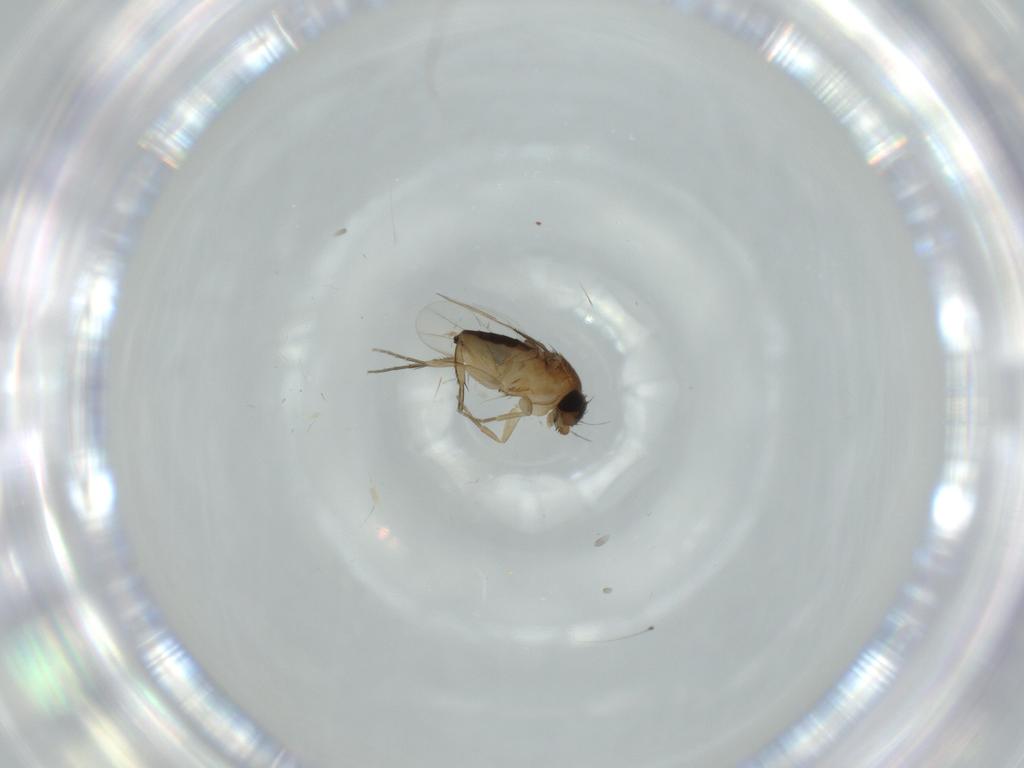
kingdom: Animalia
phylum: Arthropoda
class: Insecta
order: Diptera
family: Phoridae
